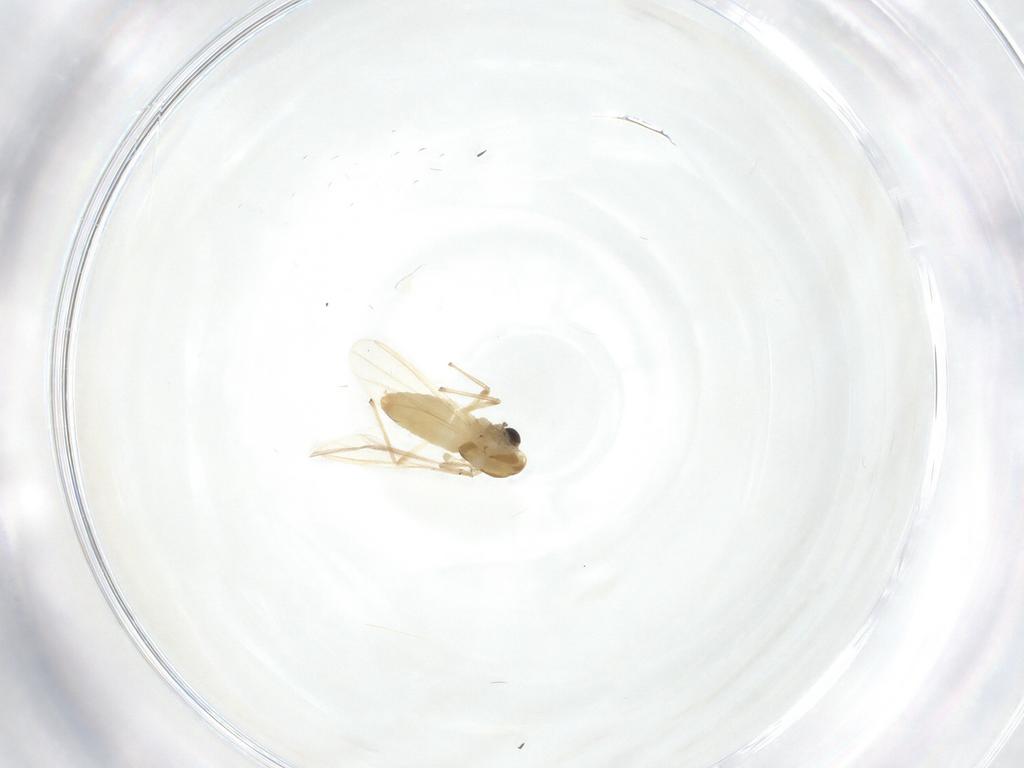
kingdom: Animalia
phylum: Arthropoda
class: Insecta
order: Diptera
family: Chironomidae
